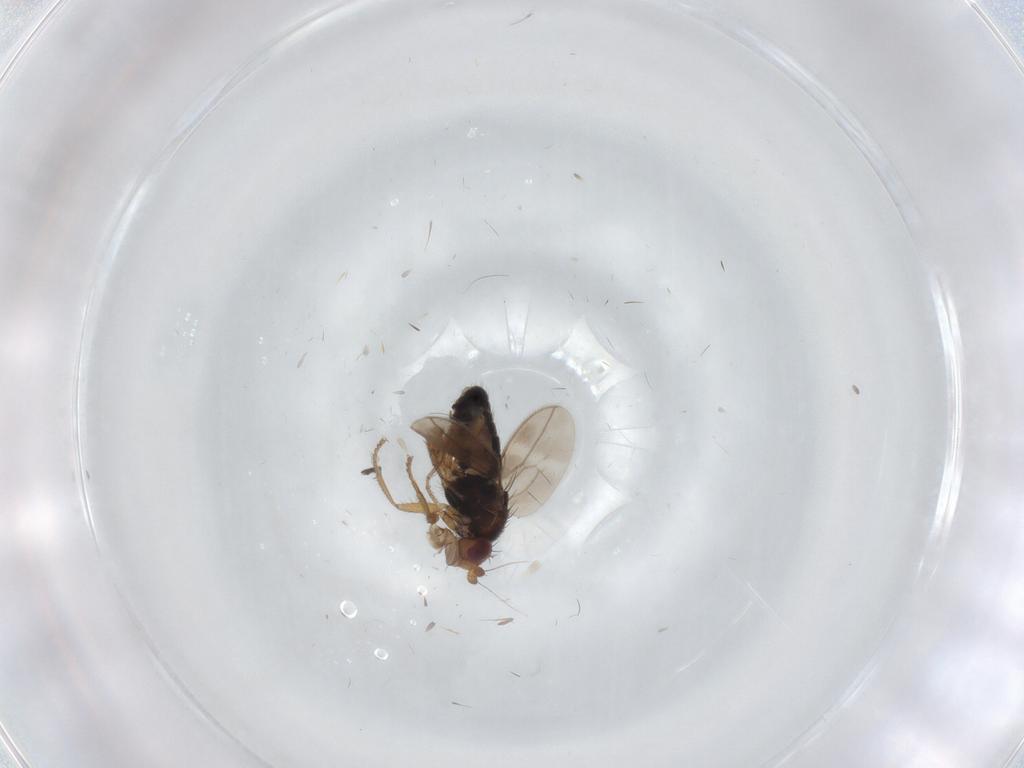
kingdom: Animalia
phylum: Arthropoda
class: Insecta
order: Diptera
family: Sphaeroceridae
